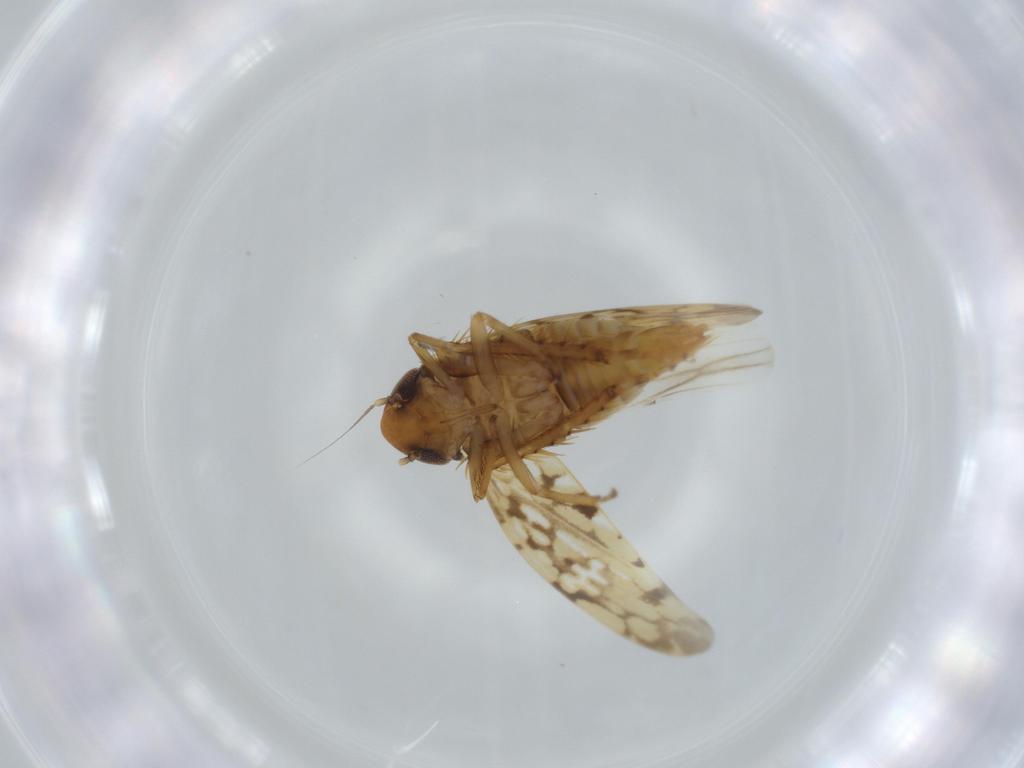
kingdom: Animalia
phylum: Arthropoda
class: Insecta
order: Hemiptera
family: Cicadellidae
